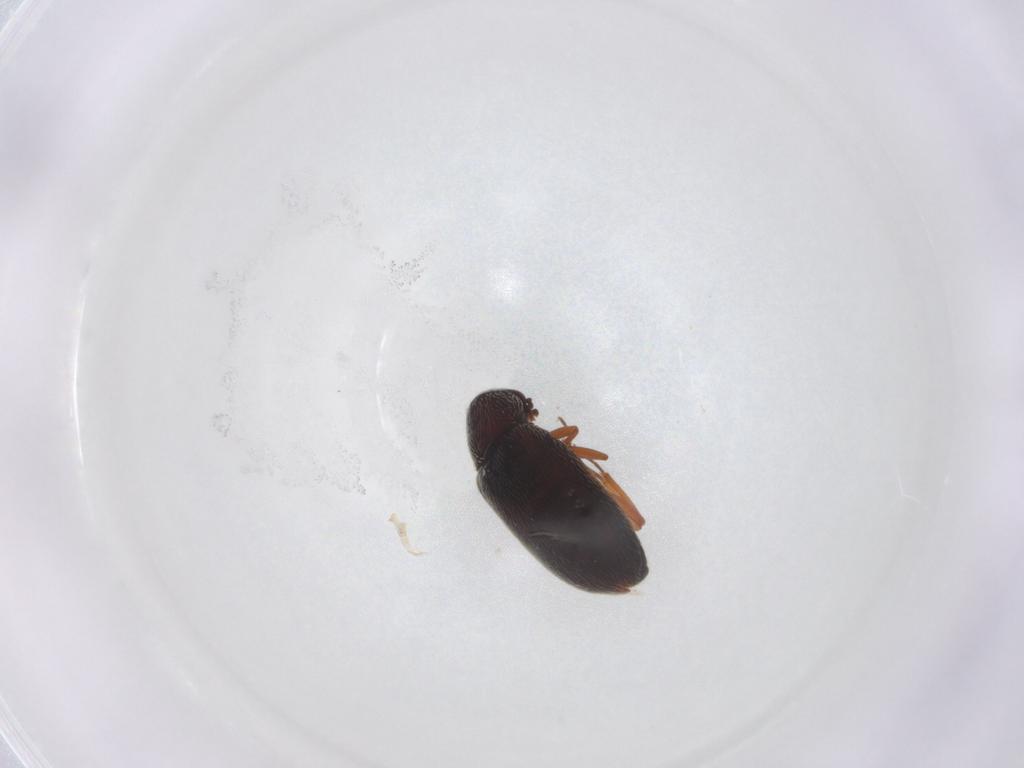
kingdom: Animalia
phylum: Arthropoda
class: Insecta
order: Coleoptera
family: Rhadalidae
